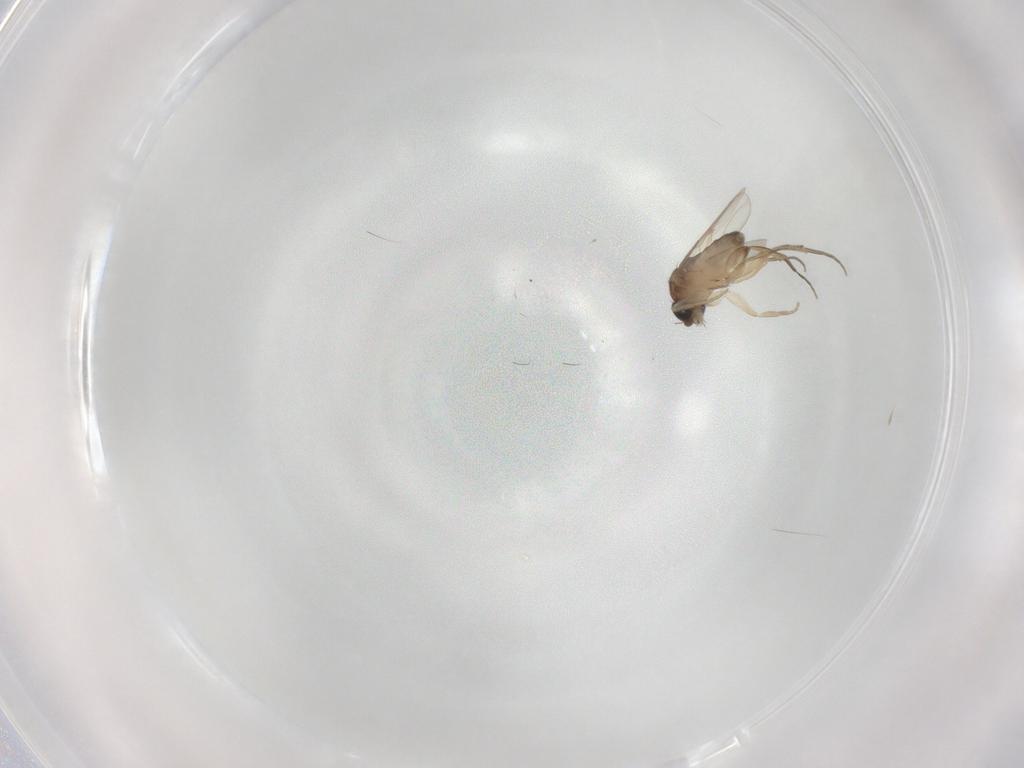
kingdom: Animalia
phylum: Arthropoda
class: Insecta
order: Diptera
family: Phoridae
